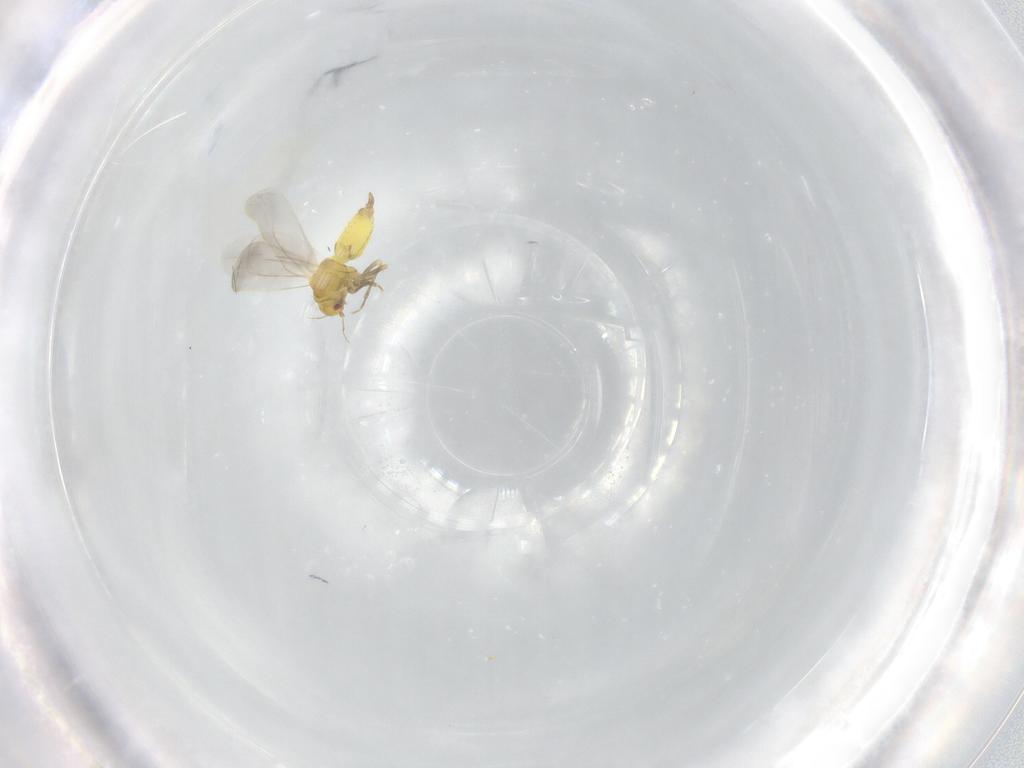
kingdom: Animalia
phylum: Arthropoda
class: Insecta
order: Hemiptera
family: Aleyrodidae
